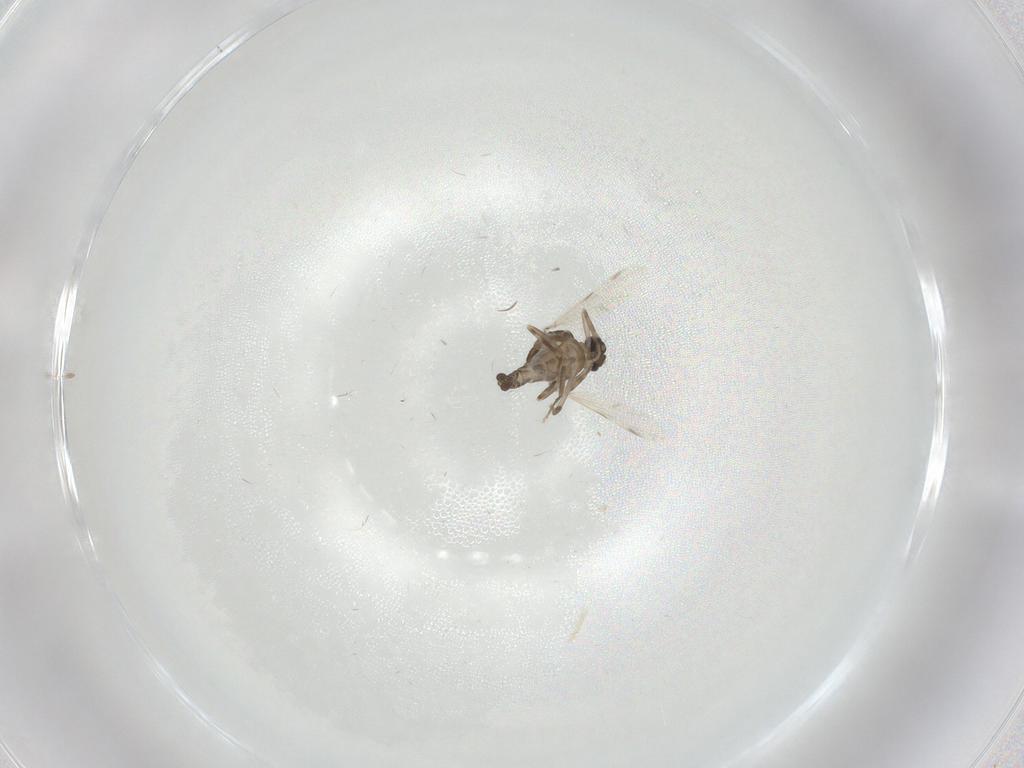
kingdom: Animalia
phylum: Arthropoda
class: Insecta
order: Diptera
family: Ceratopogonidae
